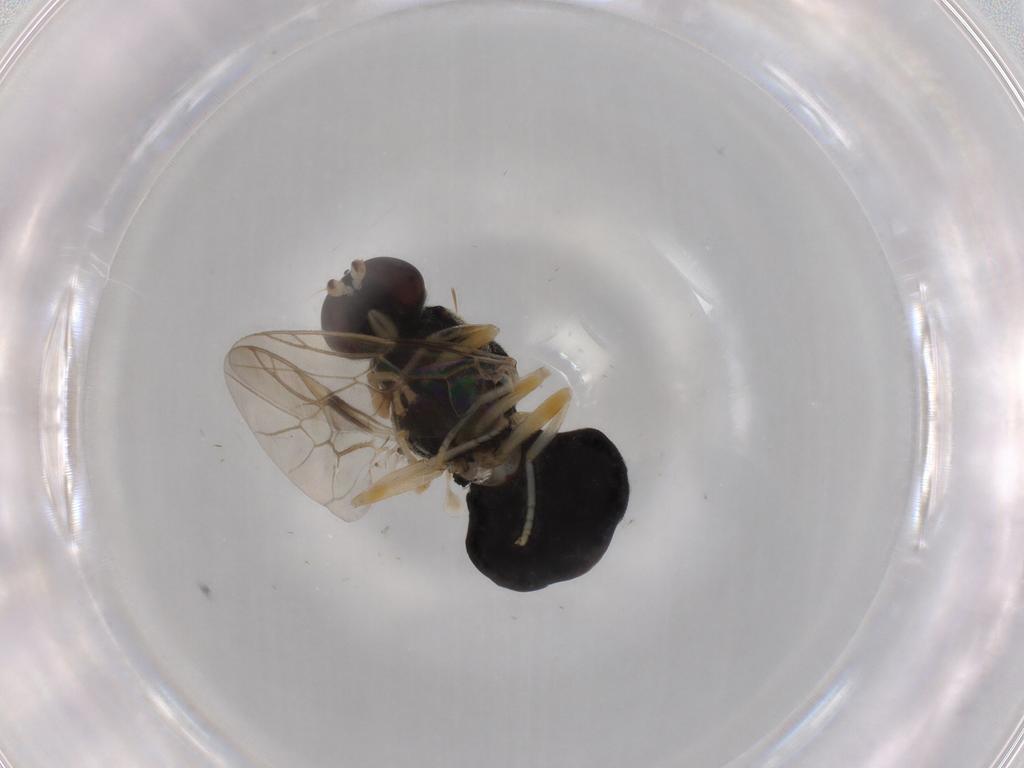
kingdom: Animalia
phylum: Arthropoda
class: Insecta
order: Diptera
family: Stratiomyidae
